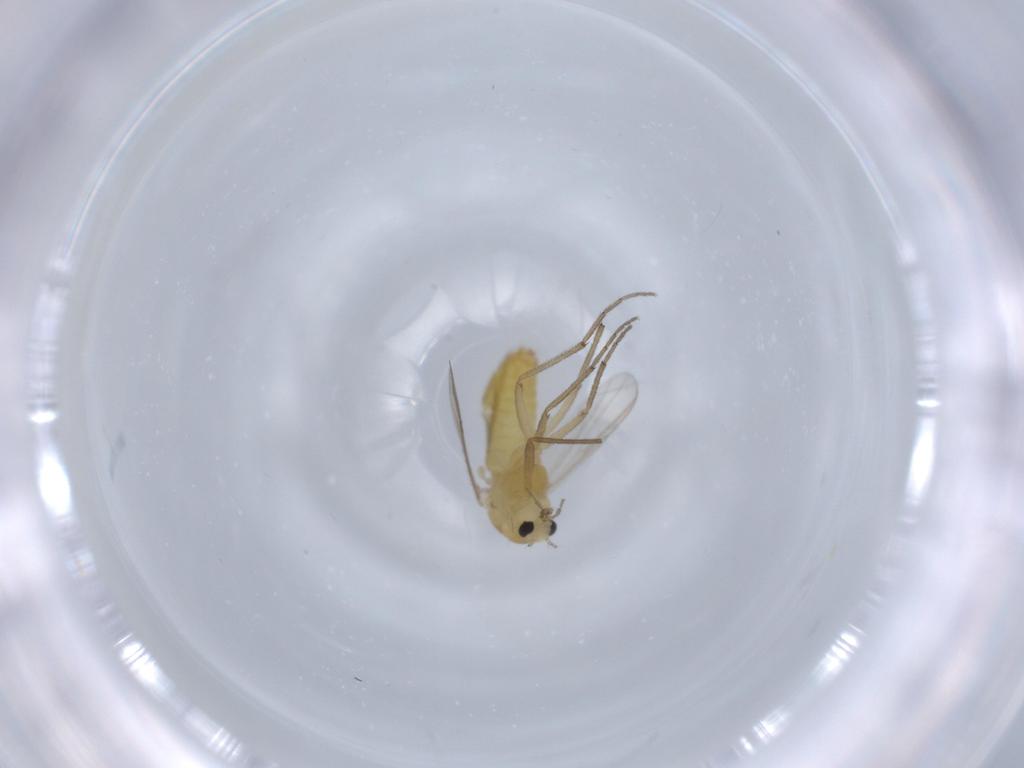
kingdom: Animalia
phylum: Arthropoda
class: Insecta
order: Diptera
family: Chironomidae
